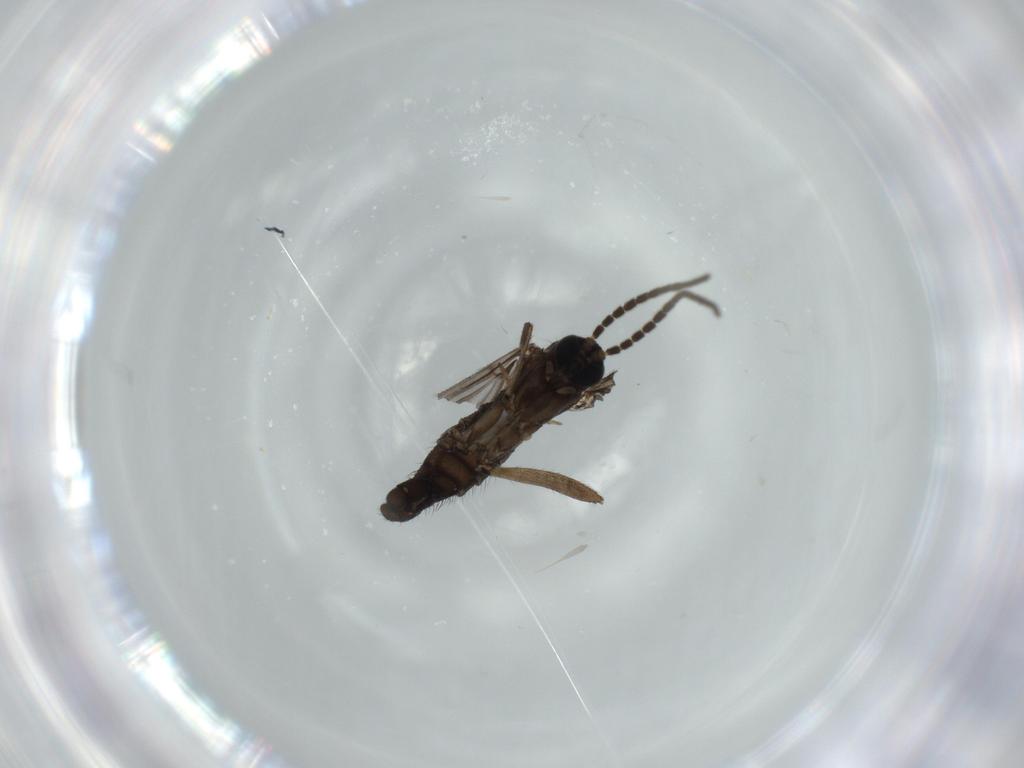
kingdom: Animalia
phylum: Arthropoda
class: Insecta
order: Diptera
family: Sciaridae
